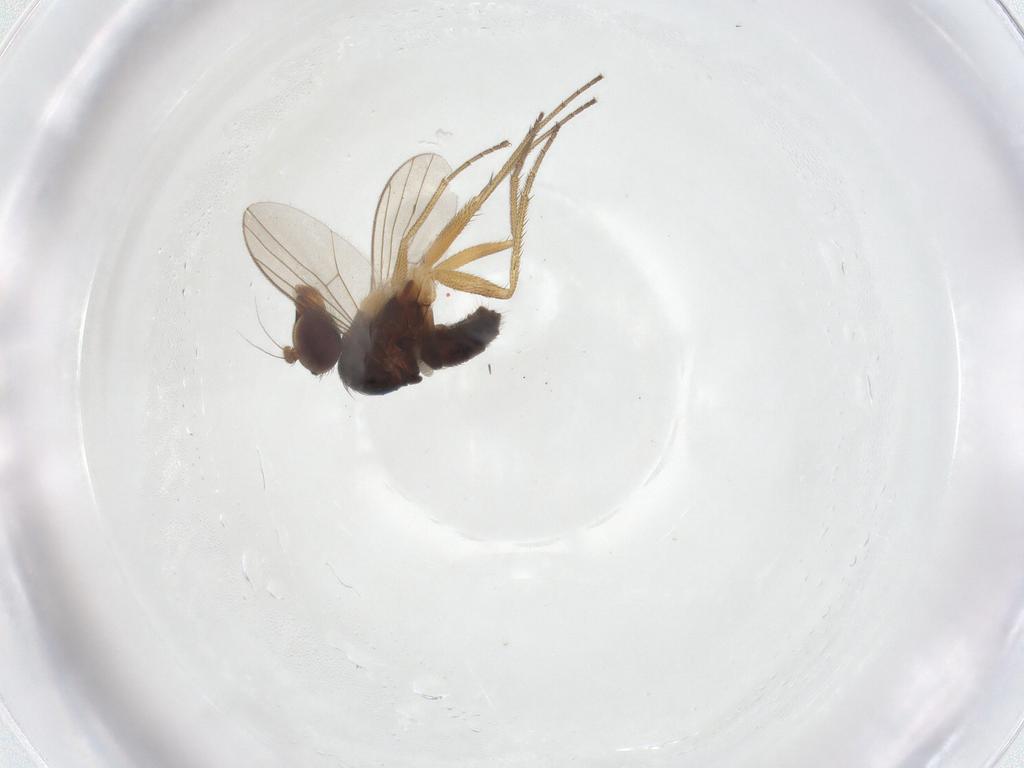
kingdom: Animalia
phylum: Arthropoda
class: Insecta
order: Diptera
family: Dolichopodidae
